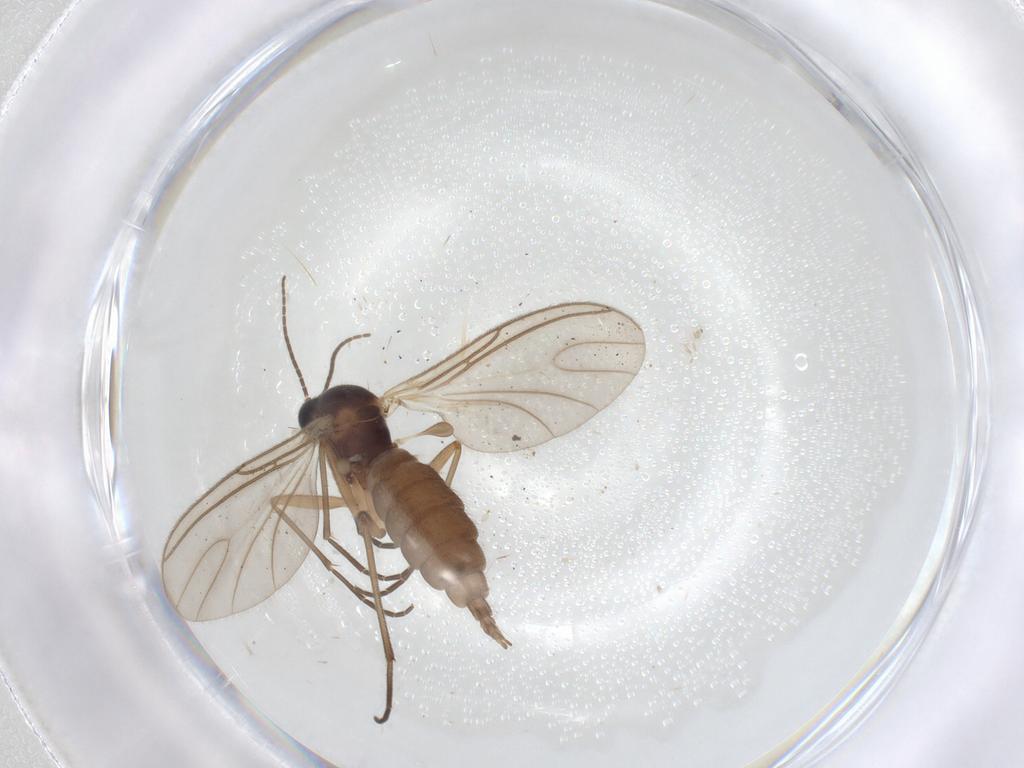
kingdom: Animalia
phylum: Arthropoda
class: Insecta
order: Diptera
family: Sciaridae
